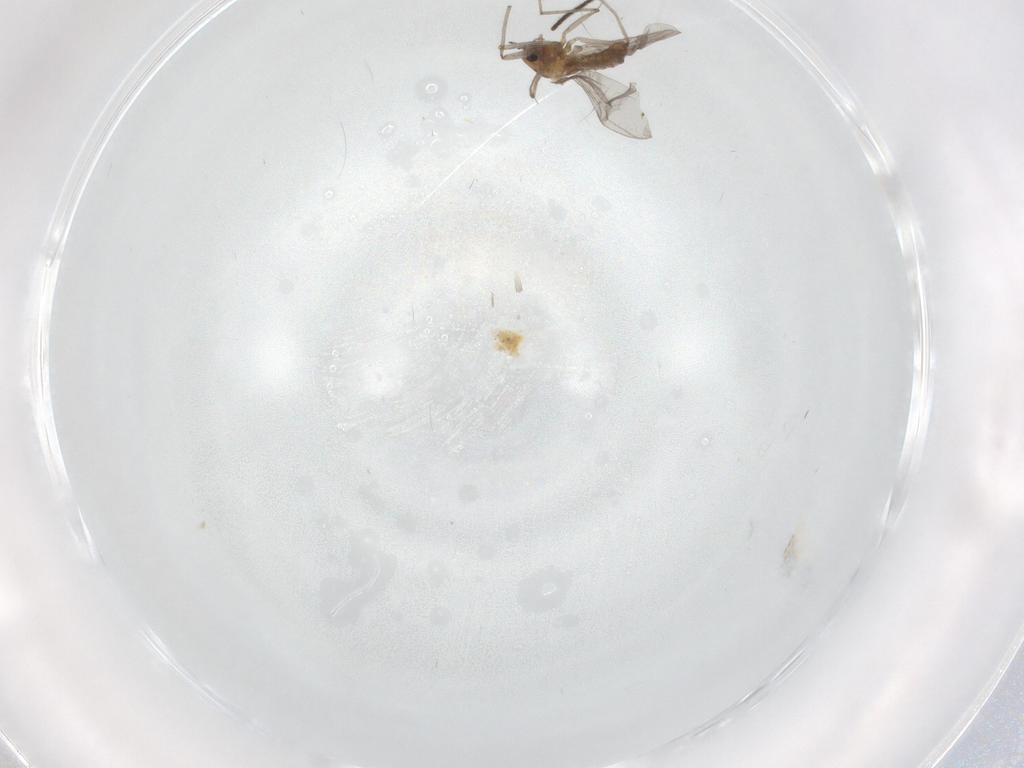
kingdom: Animalia
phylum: Arthropoda
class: Insecta
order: Diptera
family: Chironomidae
